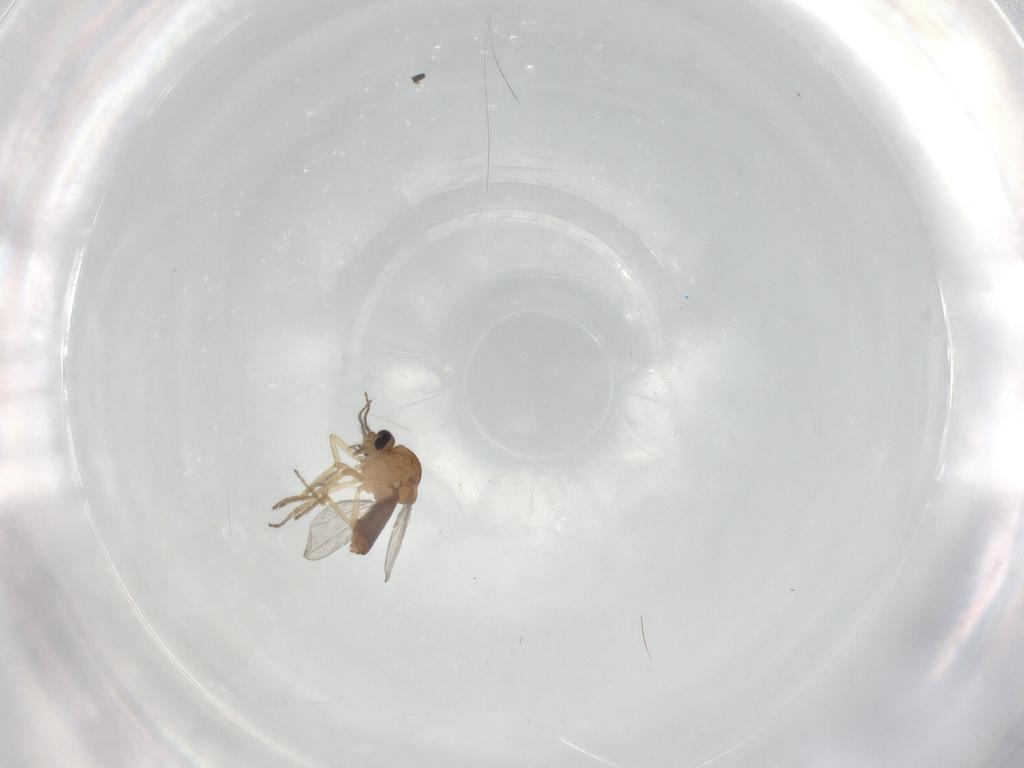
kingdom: Animalia
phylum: Arthropoda
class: Insecta
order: Diptera
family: Ceratopogonidae
